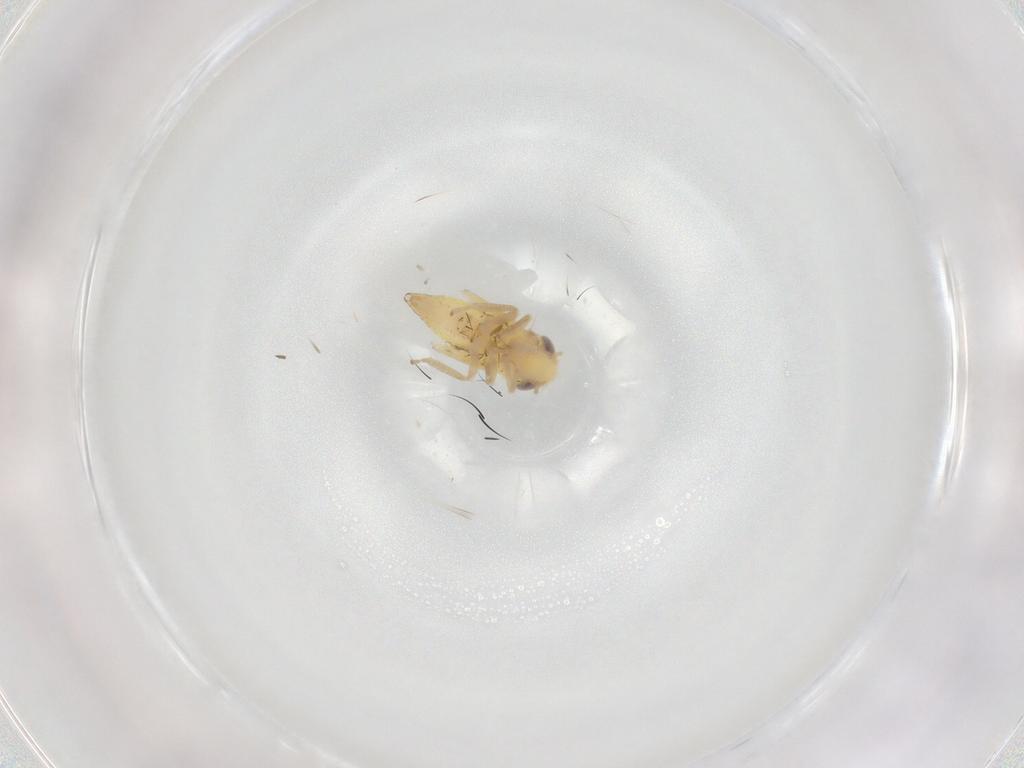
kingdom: Animalia
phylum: Arthropoda
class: Insecta
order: Hemiptera
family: Cicadellidae
